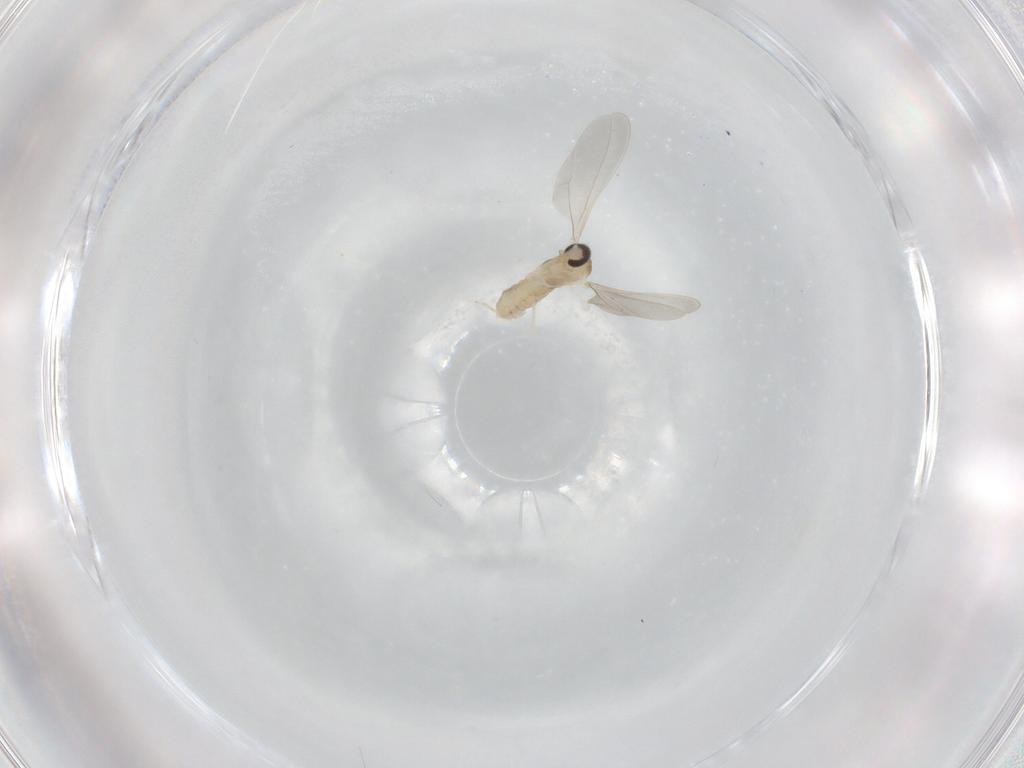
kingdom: Animalia
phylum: Arthropoda
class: Insecta
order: Diptera
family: Cecidomyiidae
